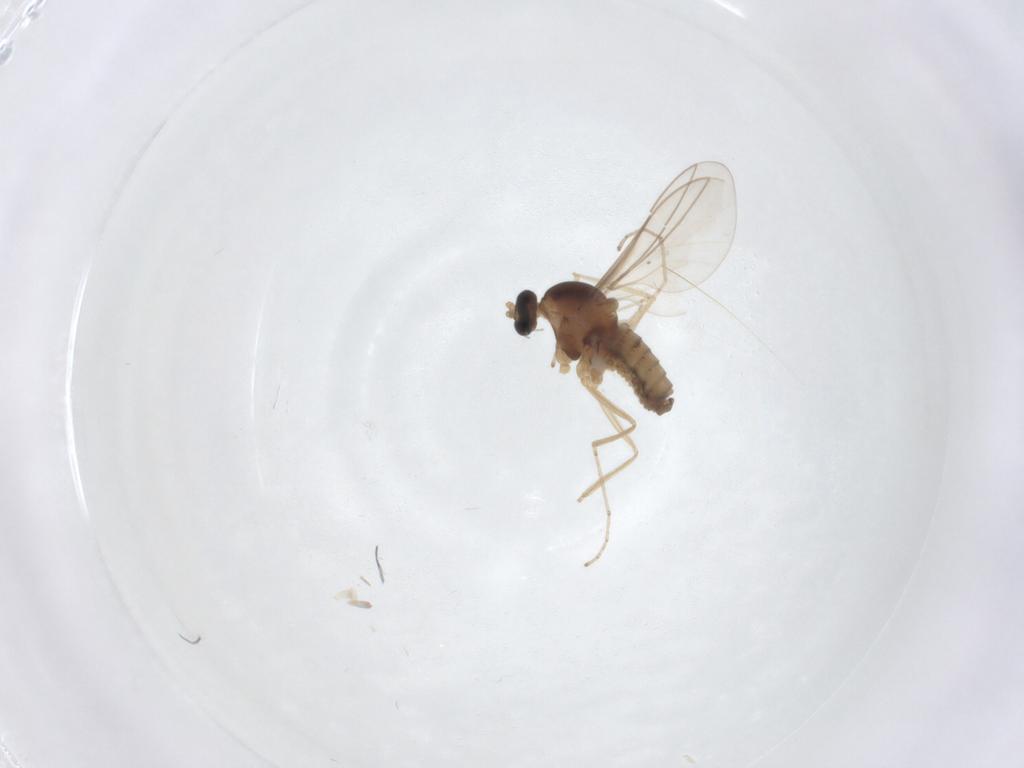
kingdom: Animalia
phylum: Arthropoda
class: Insecta
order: Diptera
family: Cecidomyiidae
